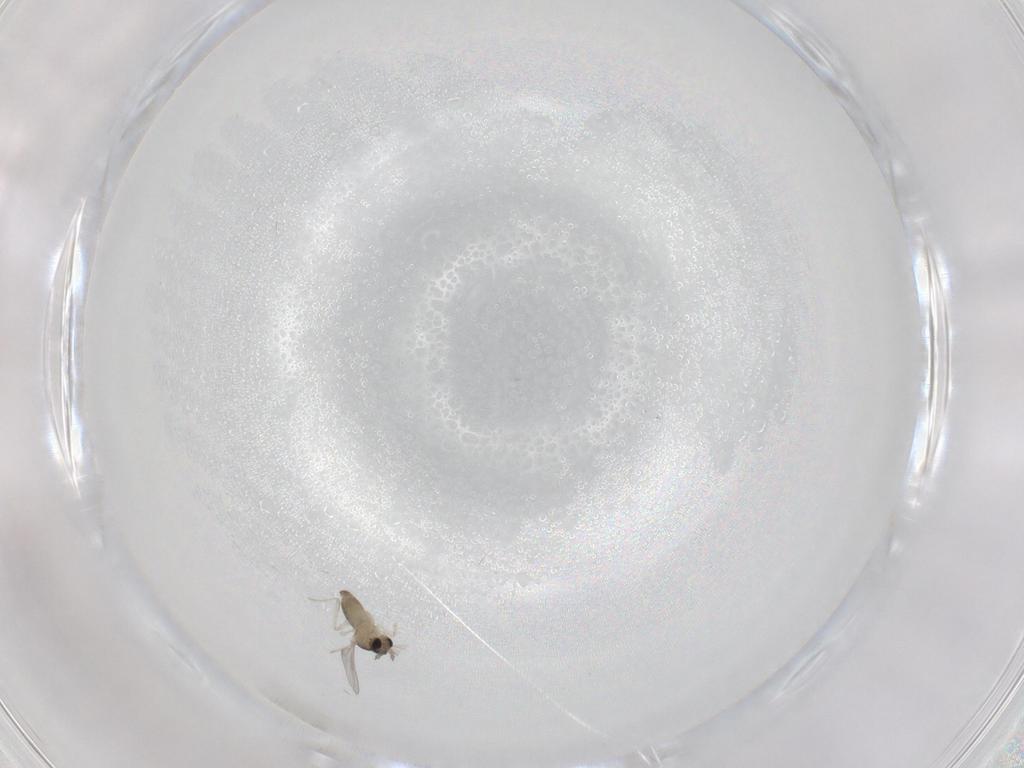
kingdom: Animalia
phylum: Arthropoda
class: Insecta
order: Diptera
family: Cecidomyiidae
